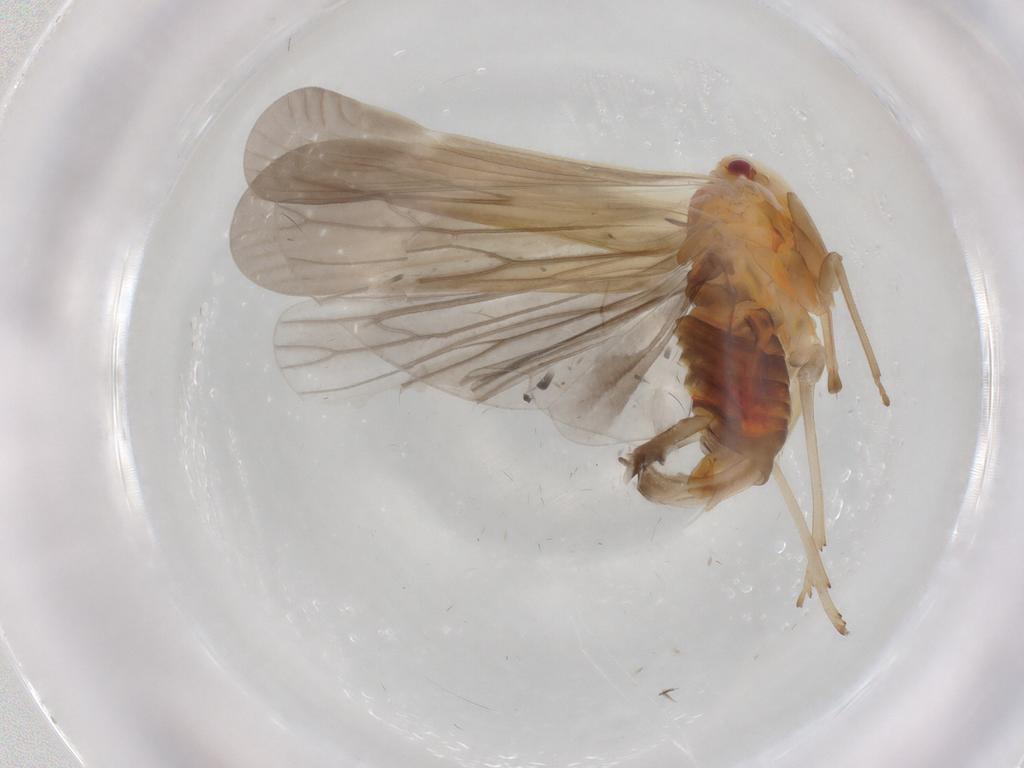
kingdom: Animalia
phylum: Arthropoda
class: Insecta
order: Hemiptera
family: Derbidae
